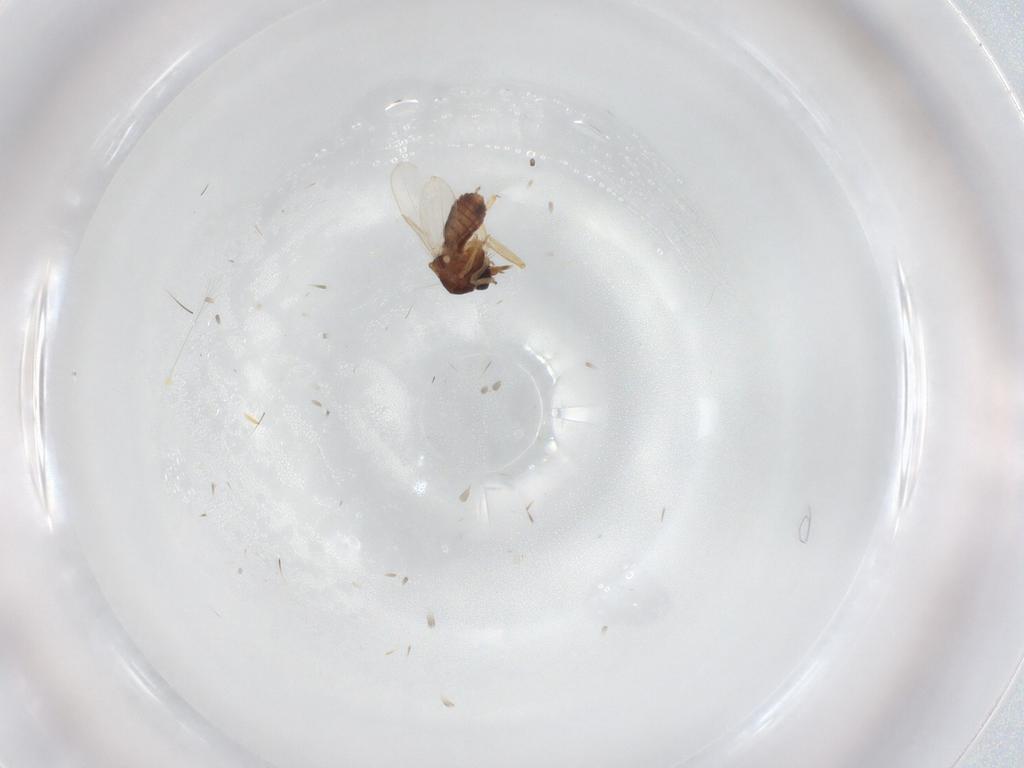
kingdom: Animalia
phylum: Arthropoda
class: Insecta
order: Diptera
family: Ceratopogonidae
